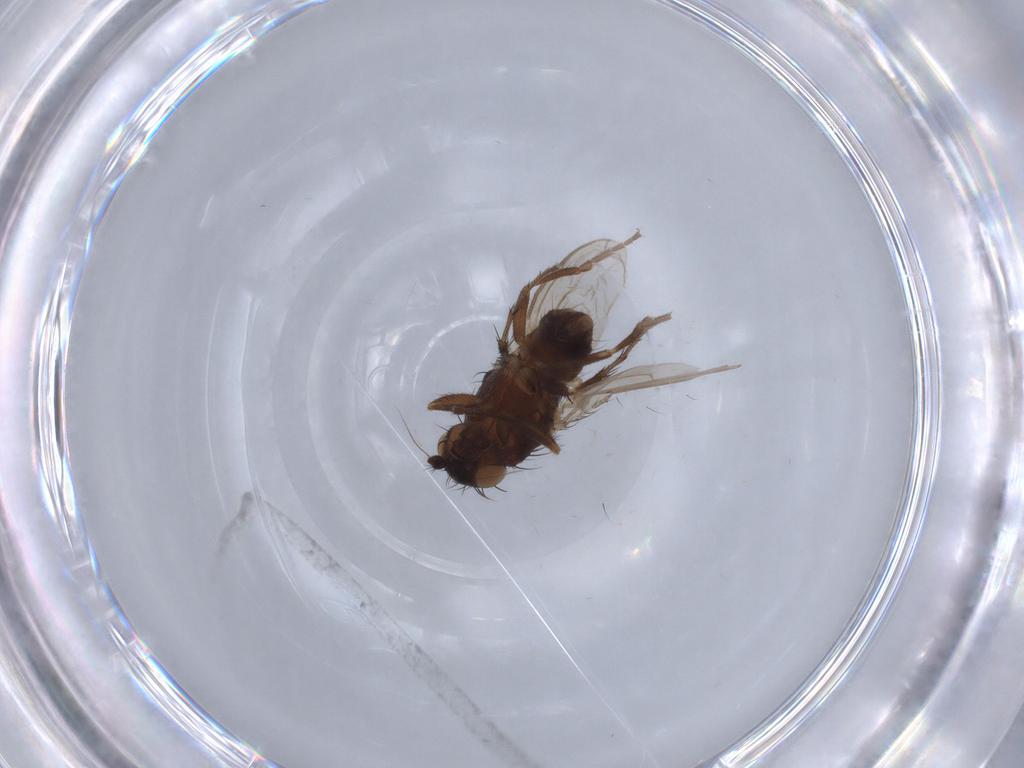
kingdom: Animalia
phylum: Arthropoda
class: Insecta
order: Diptera
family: Sphaeroceridae
